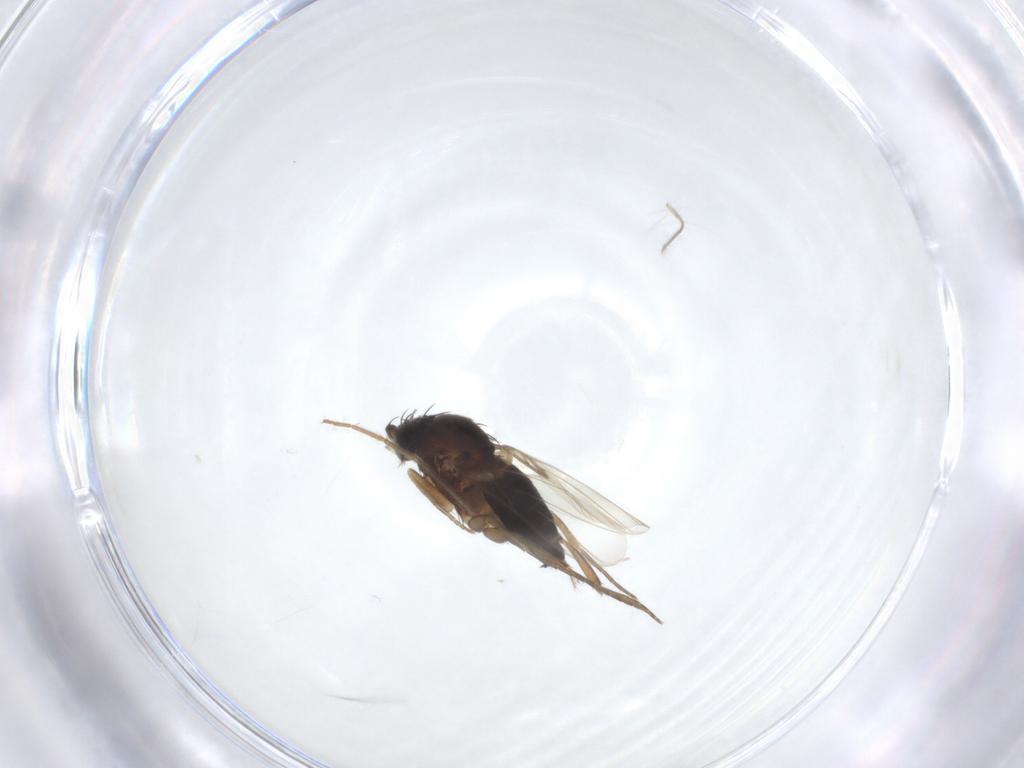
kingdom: Animalia
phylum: Arthropoda
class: Insecta
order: Diptera
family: Phoridae
